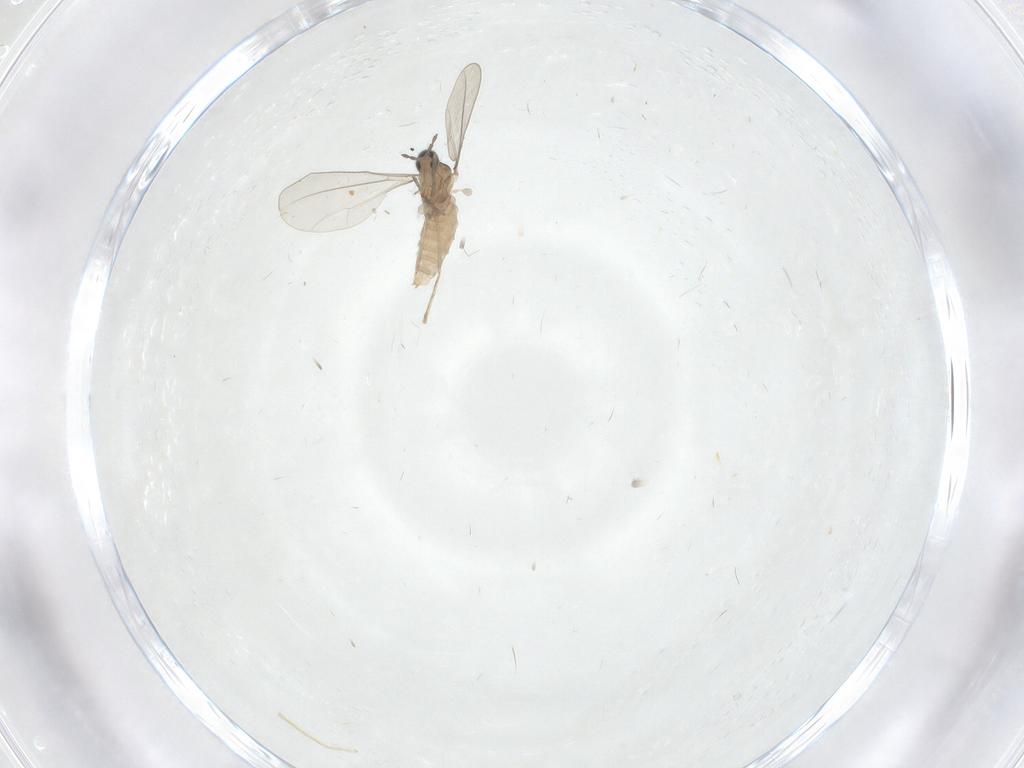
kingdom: Animalia
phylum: Arthropoda
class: Insecta
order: Diptera
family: Cecidomyiidae
